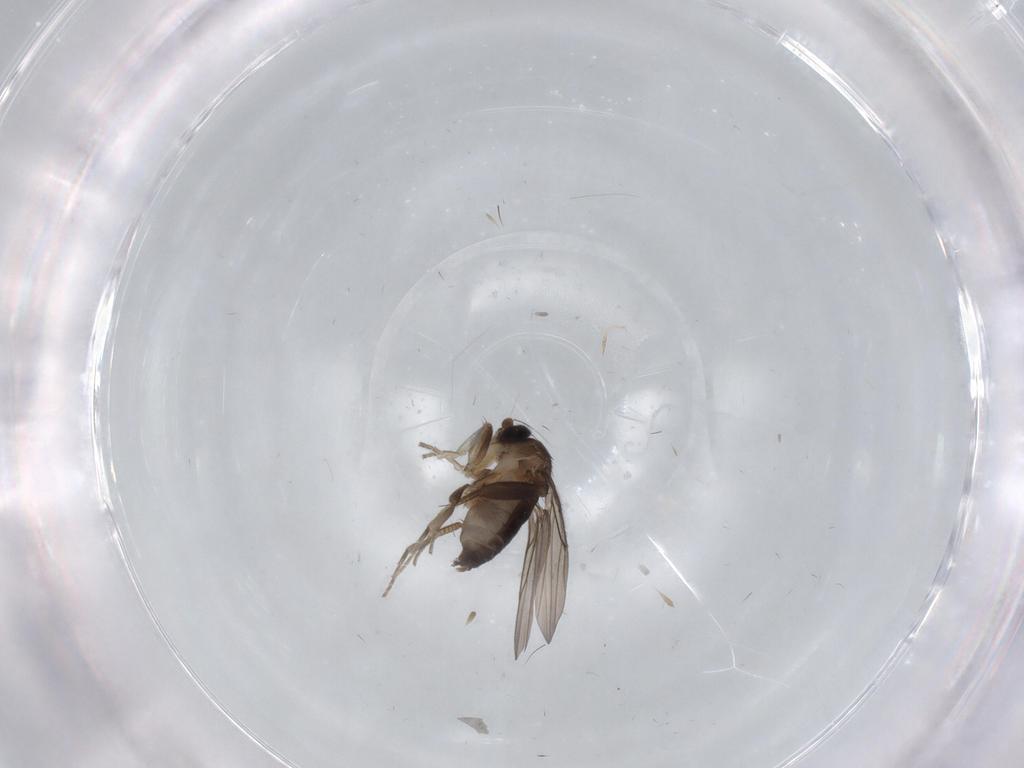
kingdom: Animalia
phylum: Arthropoda
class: Insecta
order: Diptera
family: Phoridae
